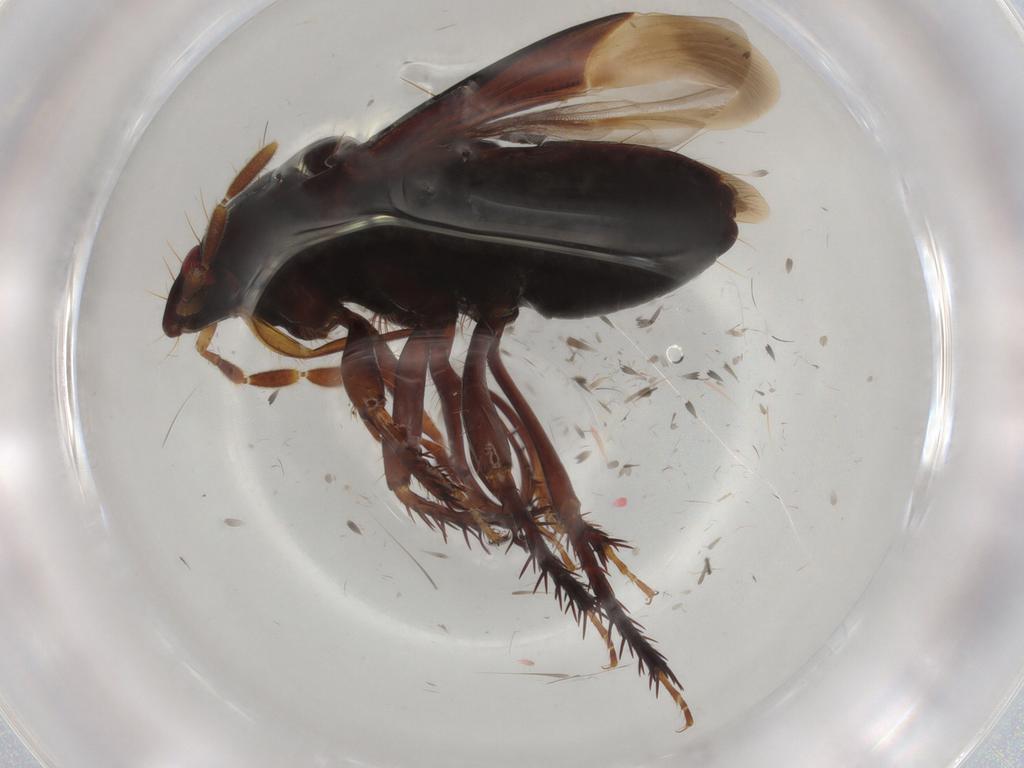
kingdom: Animalia
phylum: Arthropoda
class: Insecta
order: Hemiptera
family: Cydnidae
